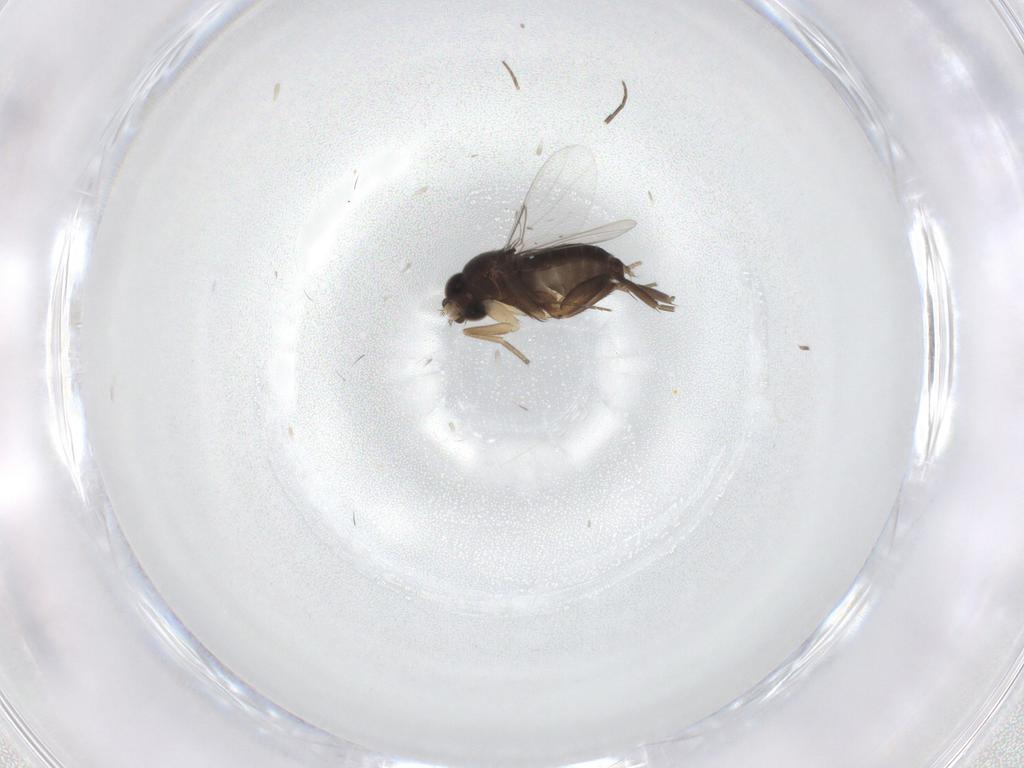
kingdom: Animalia
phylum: Arthropoda
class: Insecta
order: Diptera
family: Phoridae
